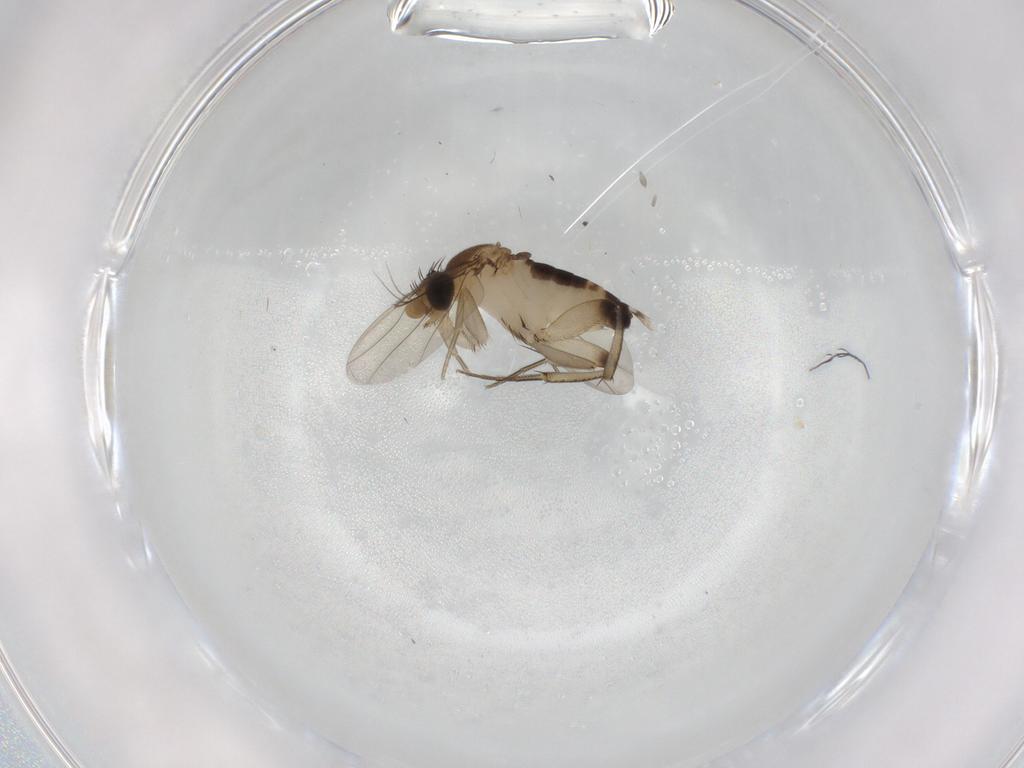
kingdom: Animalia
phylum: Arthropoda
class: Insecta
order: Diptera
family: Phoridae
